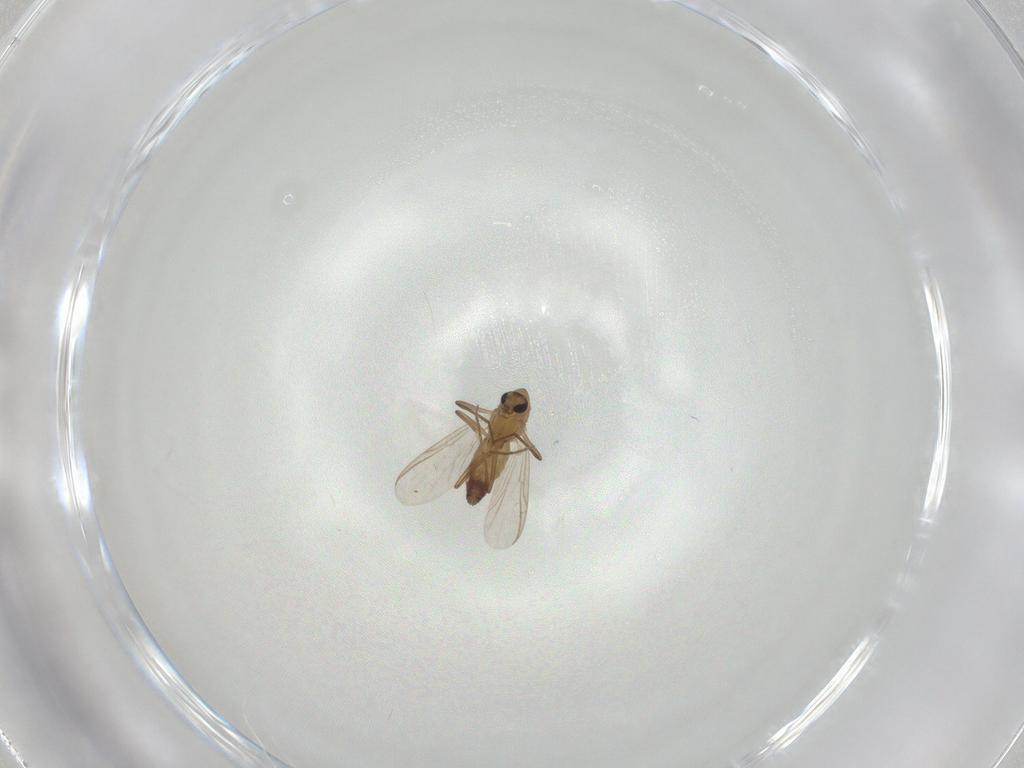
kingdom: Animalia
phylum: Arthropoda
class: Insecta
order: Diptera
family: Chironomidae
